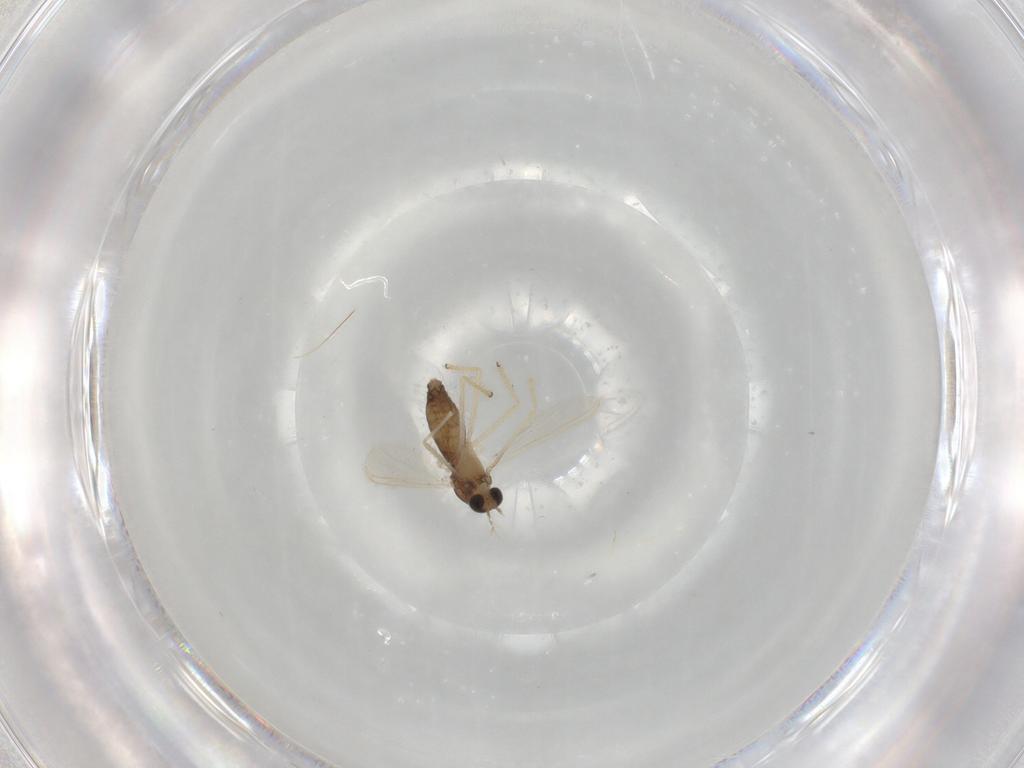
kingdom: Animalia
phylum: Arthropoda
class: Insecta
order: Diptera
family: Chironomidae
